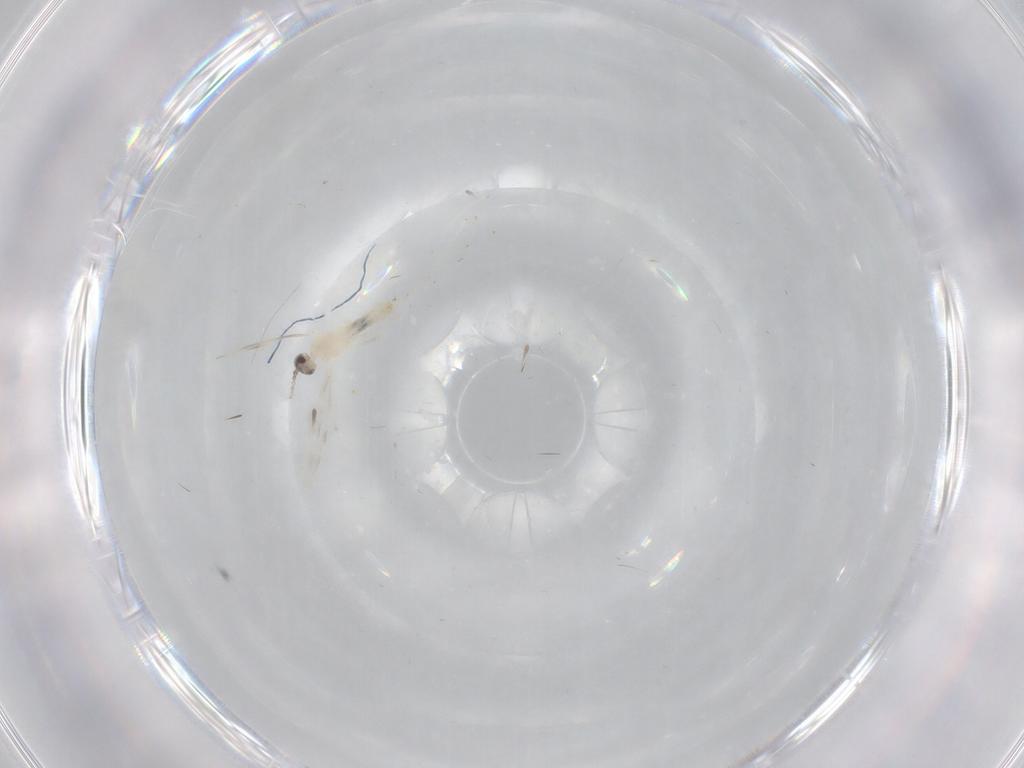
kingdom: Animalia
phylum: Arthropoda
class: Insecta
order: Diptera
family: Cecidomyiidae
